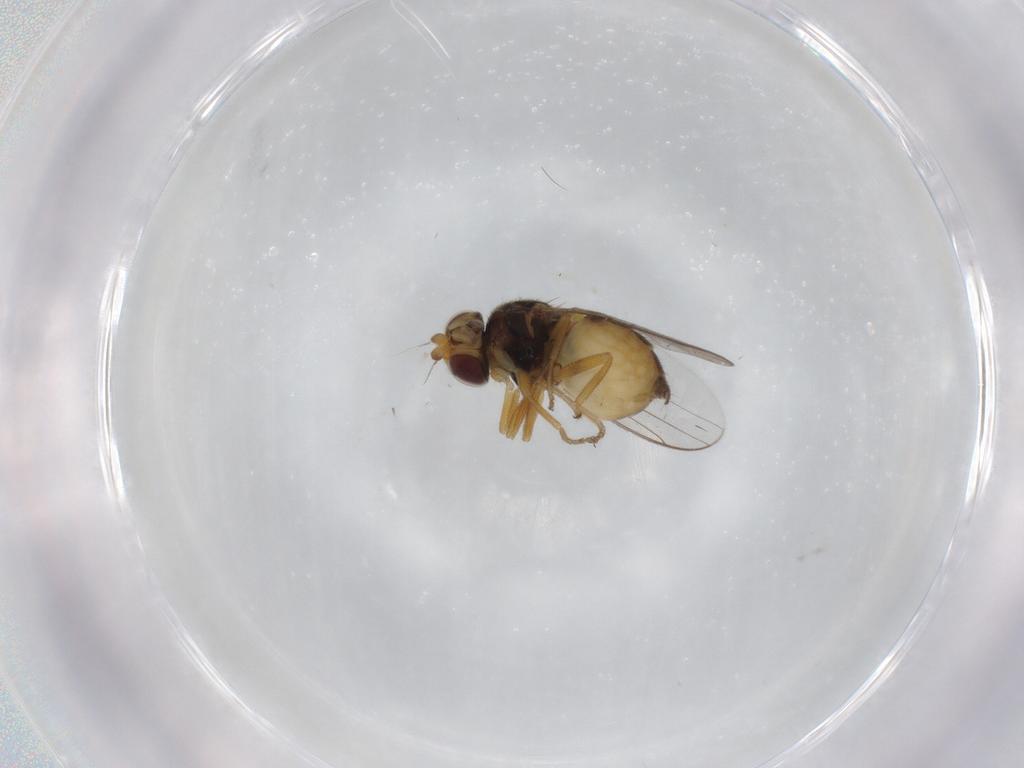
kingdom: Animalia
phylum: Arthropoda
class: Insecta
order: Diptera
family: Chloropidae
